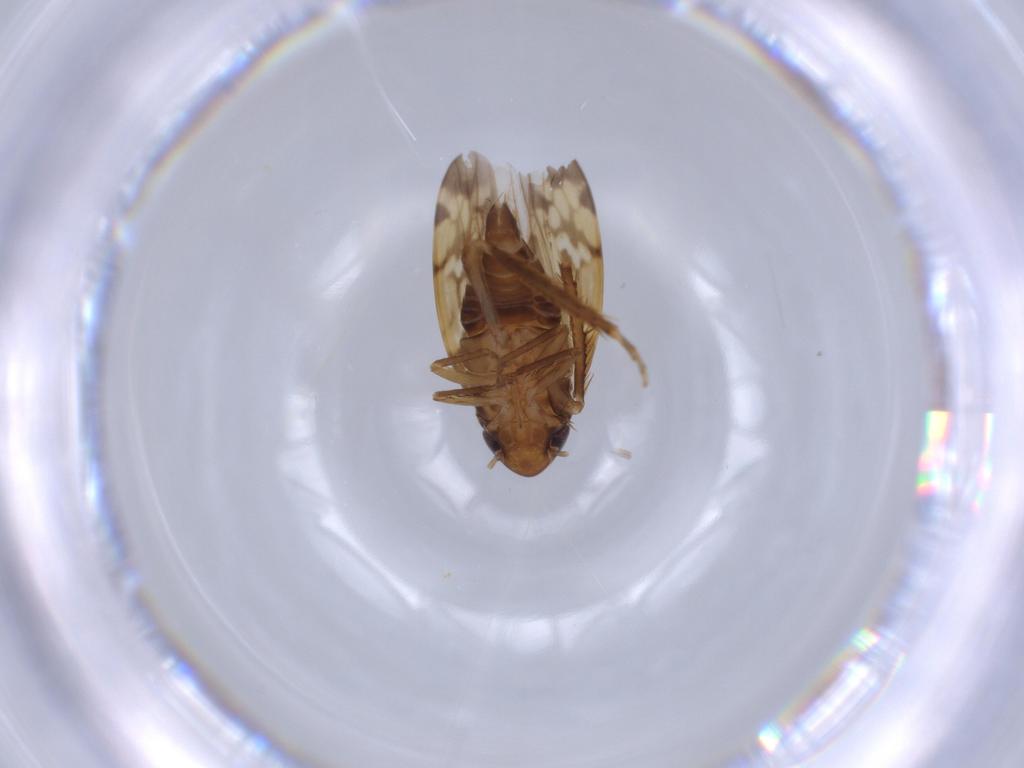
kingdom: Animalia
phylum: Arthropoda
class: Insecta
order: Hemiptera
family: Cicadellidae
